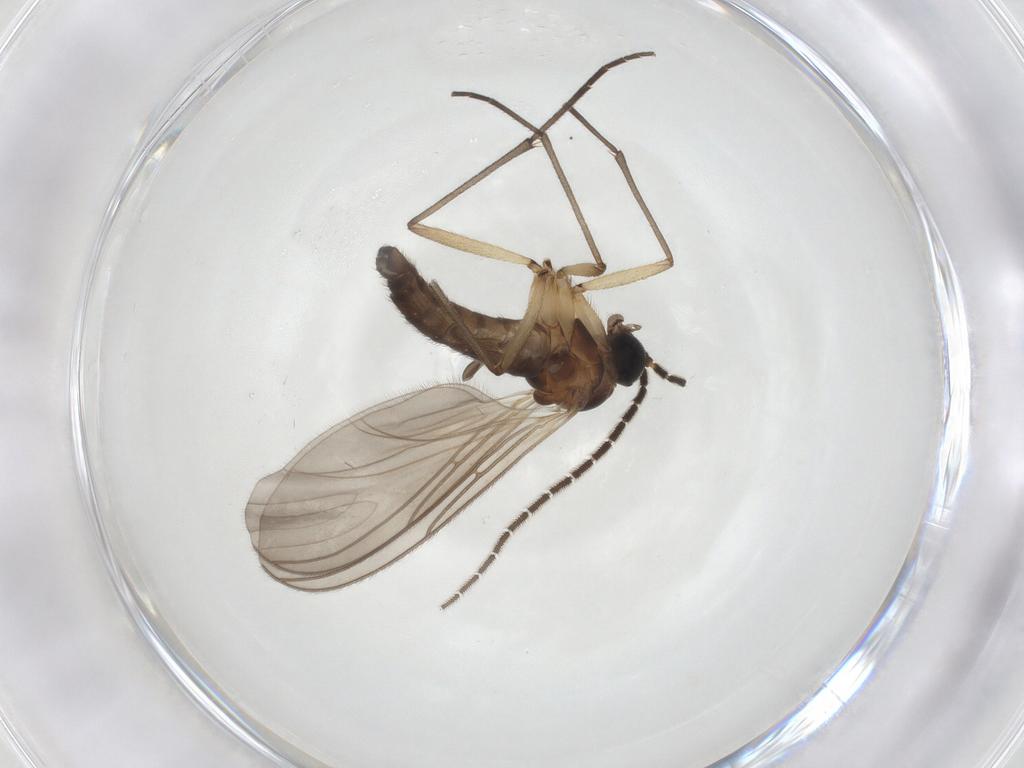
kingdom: Animalia
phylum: Arthropoda
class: Insecta
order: Diptera
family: Sciaridae
